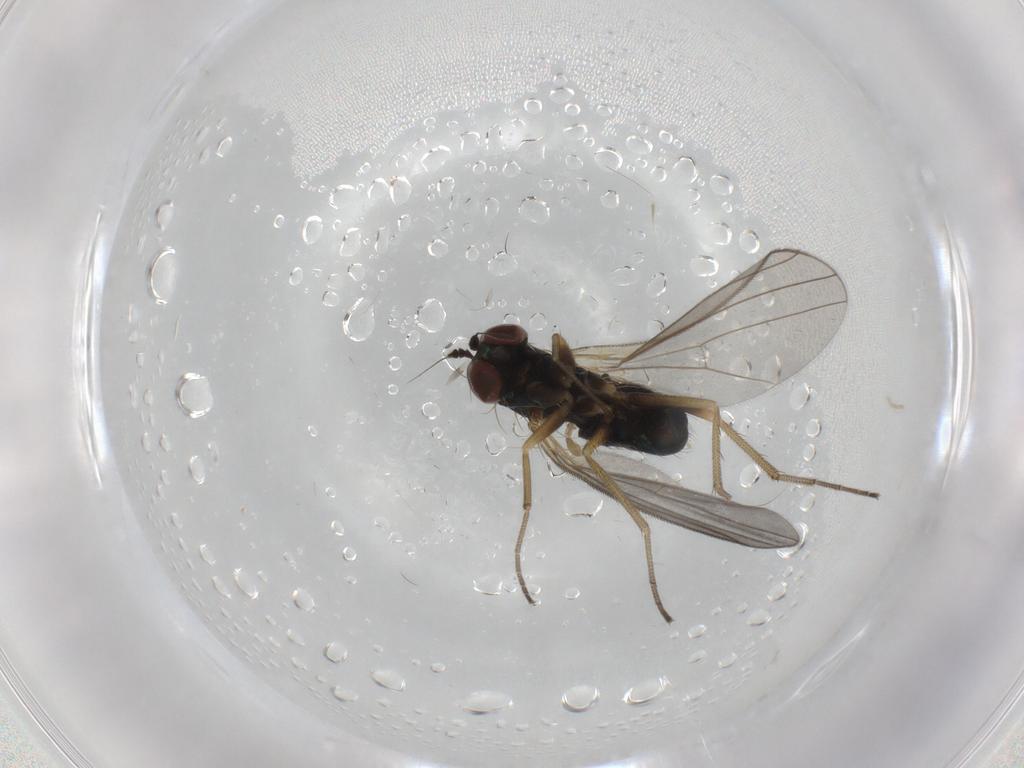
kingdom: Animalia
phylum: Arthropoda
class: Insecta
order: Diptera
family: Dolichopodidae
